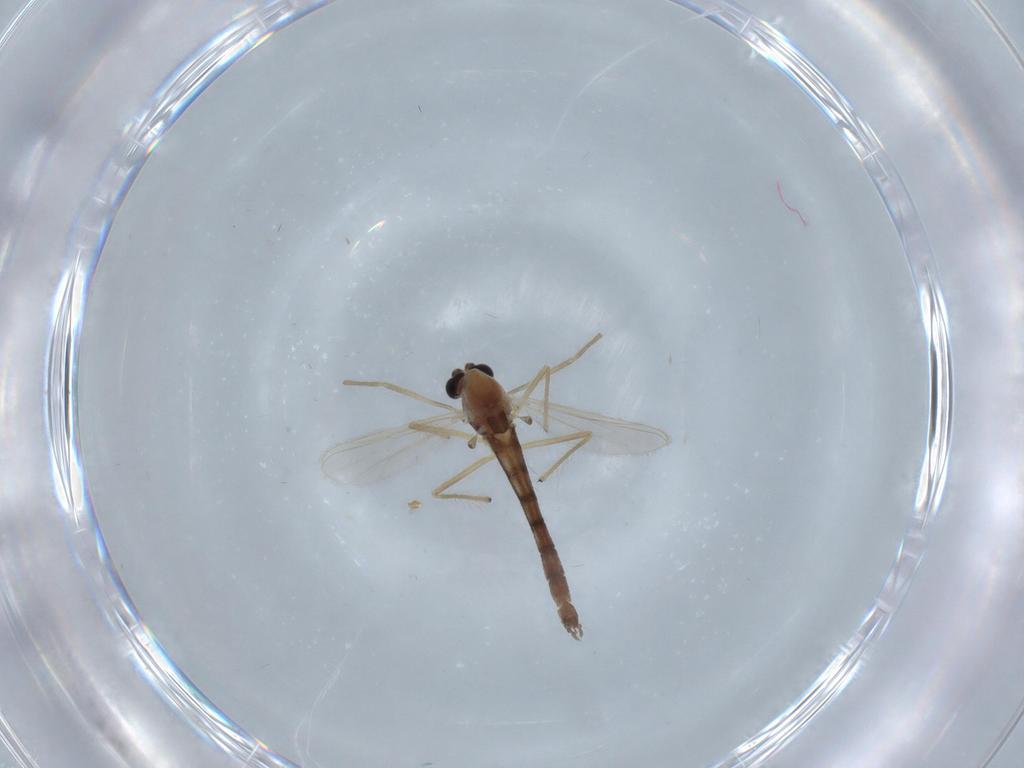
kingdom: Animalia
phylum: Arthropoda
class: Insecta
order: Diptera
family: Chironomidae
